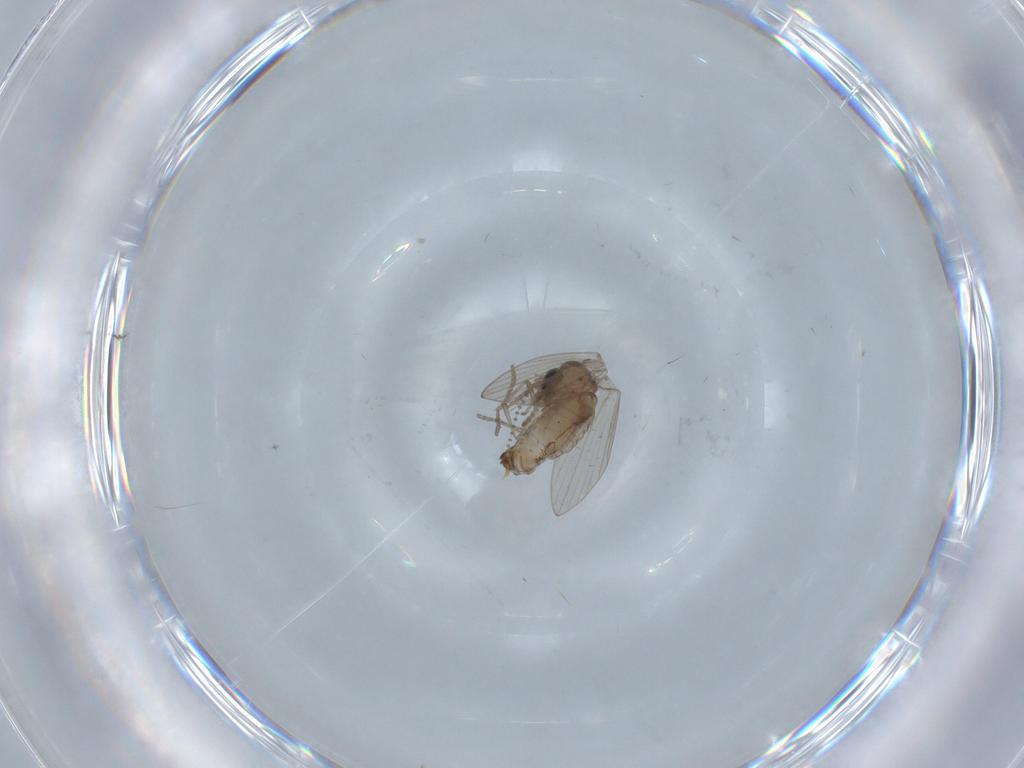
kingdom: Animalia
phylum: Arthropoda
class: Insecta
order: Diptera
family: Psychodidae
